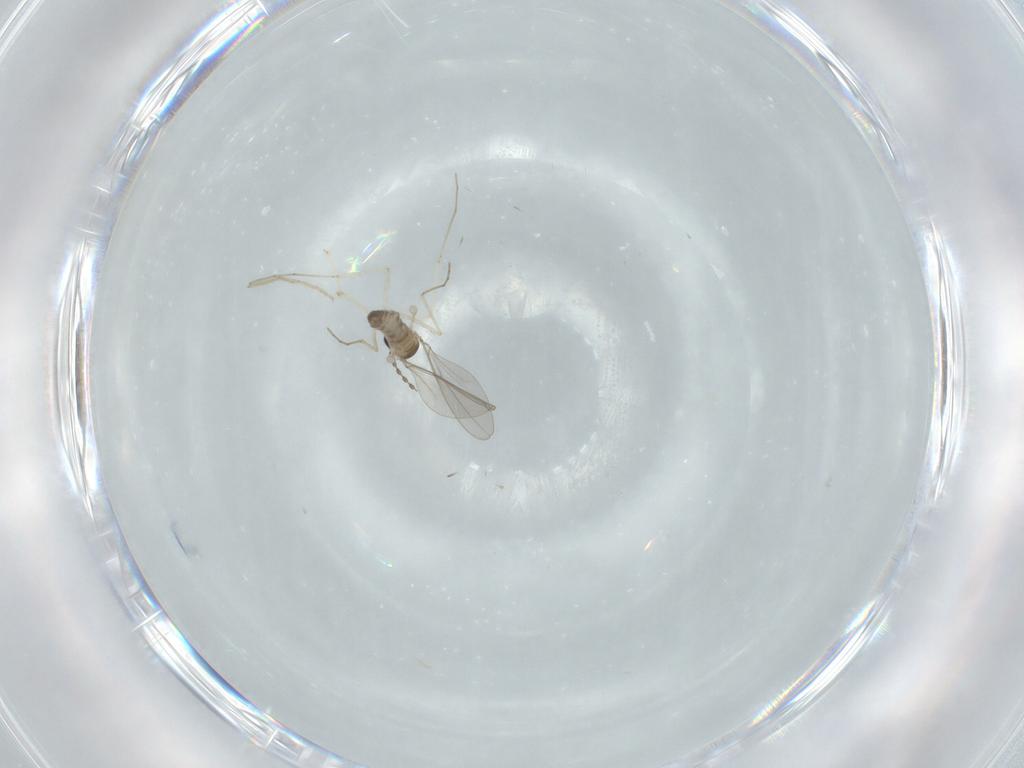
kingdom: Animalia
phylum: Arthropoda
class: Insecta
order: Diptera
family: Cecidomyiidae
